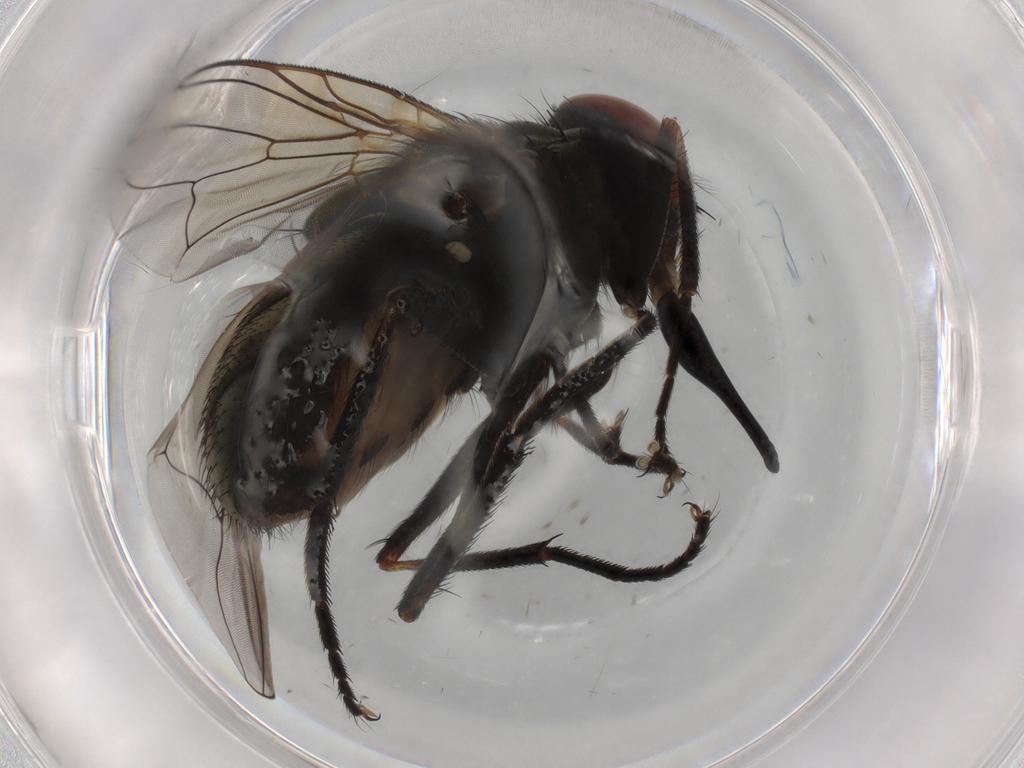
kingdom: Animalia
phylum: Arthropoda
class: Insecta
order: Diptera
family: Muscidae
